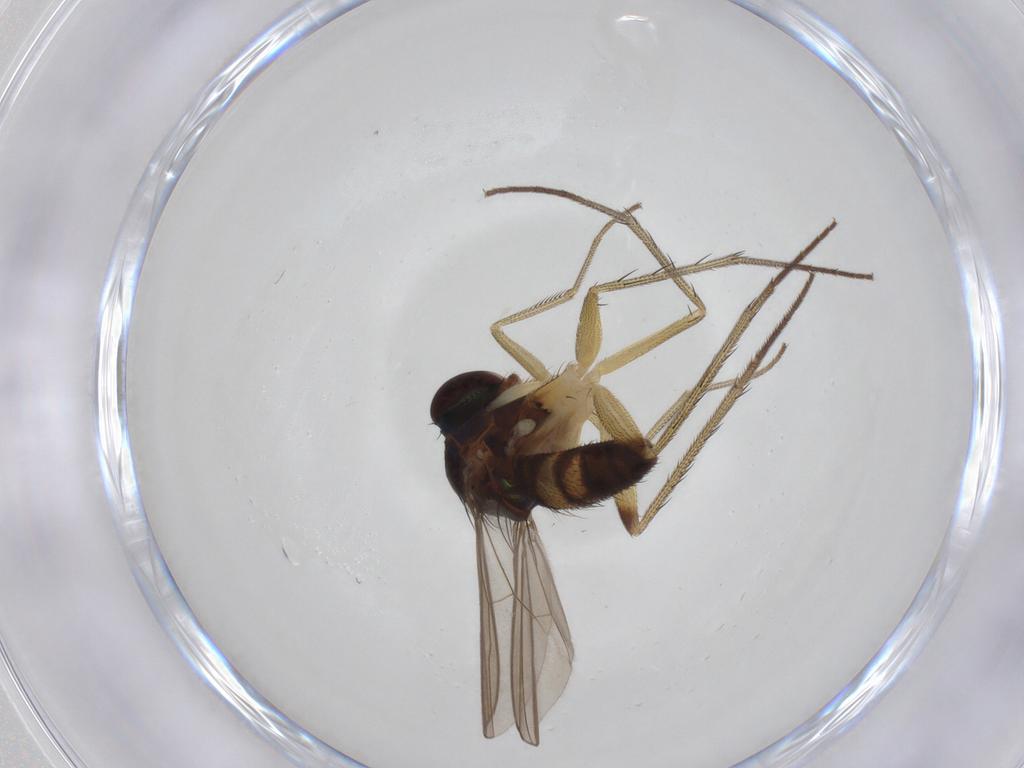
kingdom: Animalia
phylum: Arthropoda
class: Insecta
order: Diptera
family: Dolichopodidae
